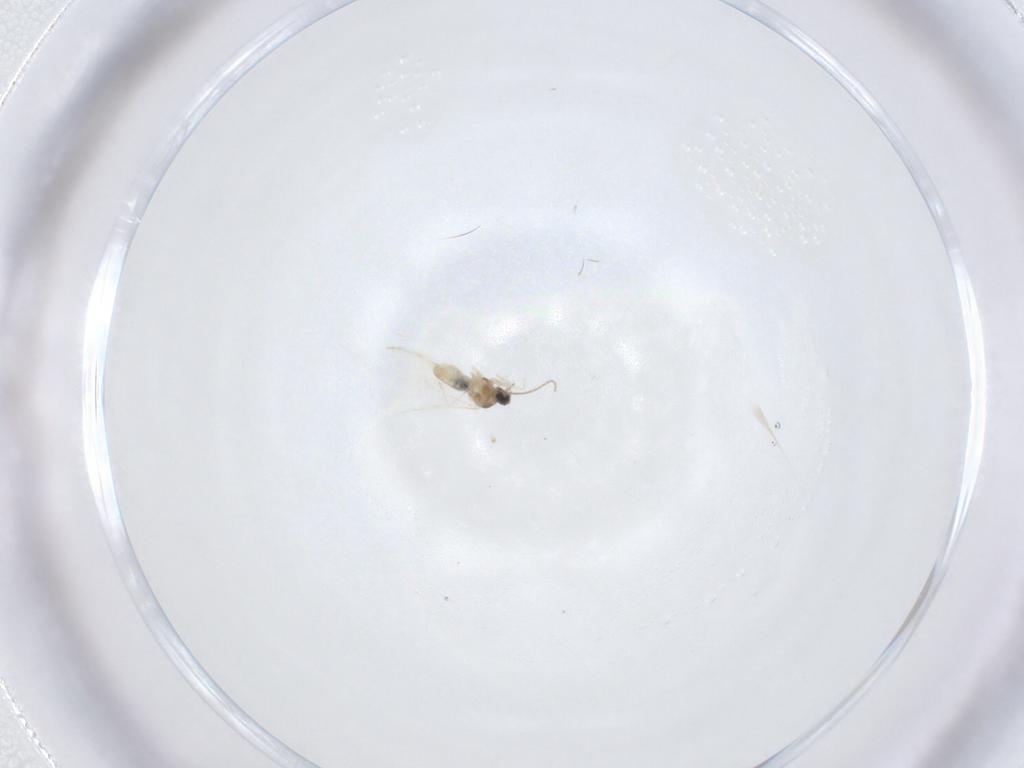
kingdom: Animalia
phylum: Arthropoda
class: Insecta
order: Diptera
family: Cecidomyiidae
